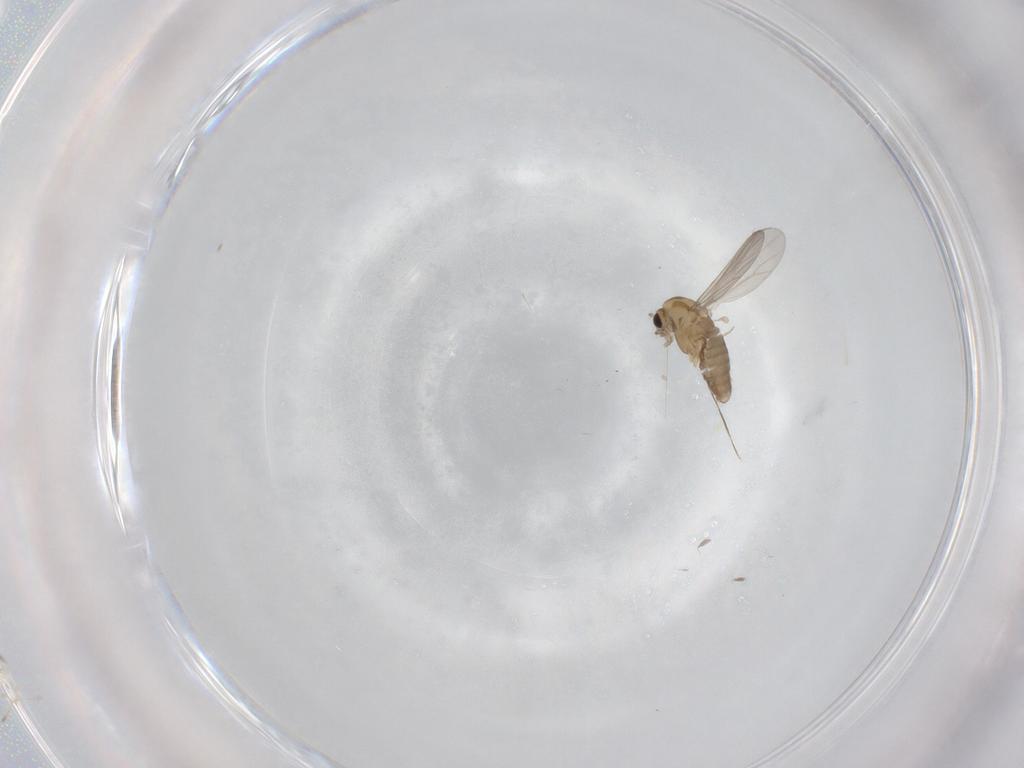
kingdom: Animalia
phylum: Arthropoda
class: Insecta
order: Diptera
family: Chironomidae
